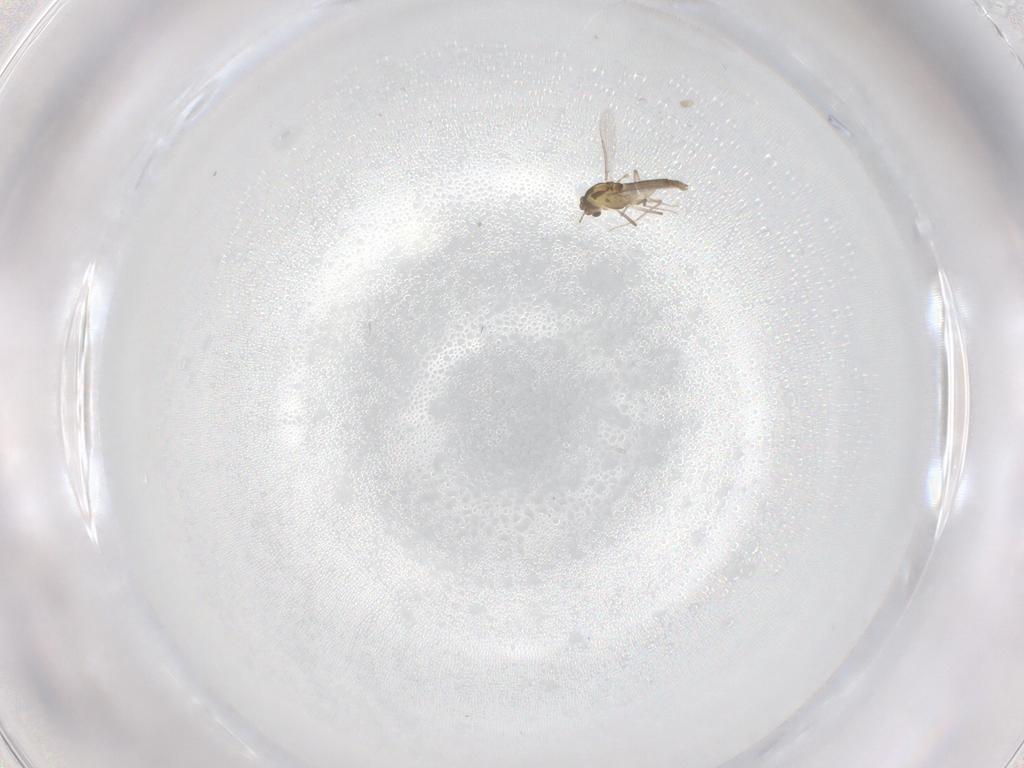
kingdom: Animalia
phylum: Arthropoda
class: Insecta
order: Diptera
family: Chironomidae
